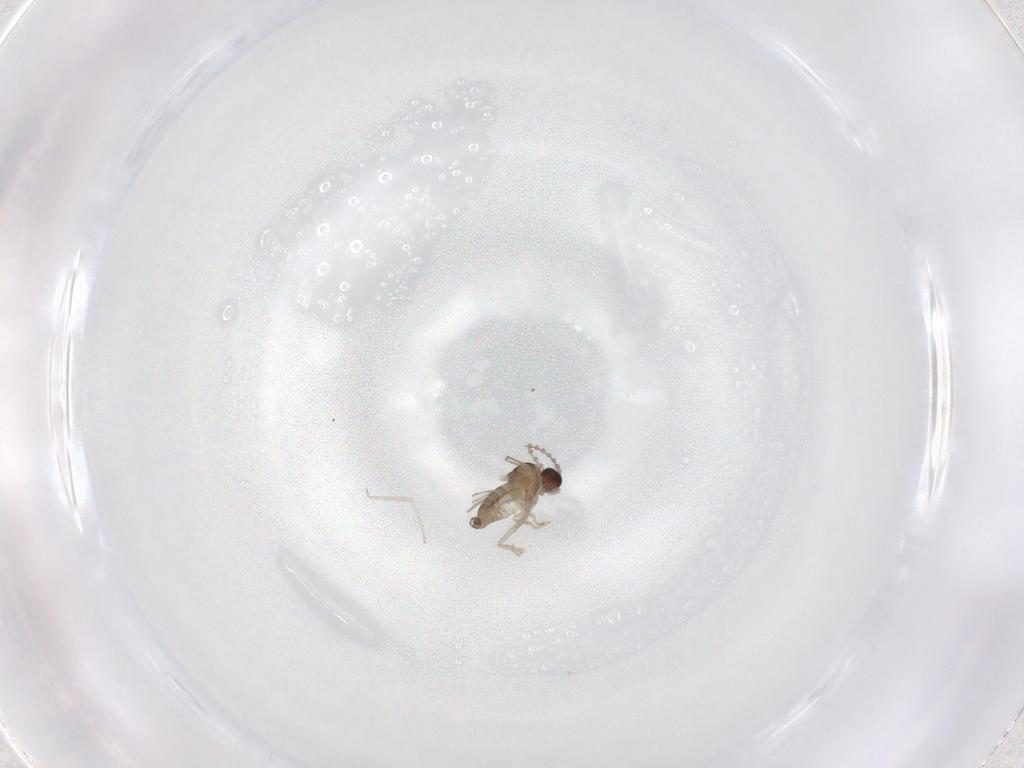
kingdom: Animalia
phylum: Arthropoda
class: Insecta
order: Diptera
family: Cecidomyiidae
